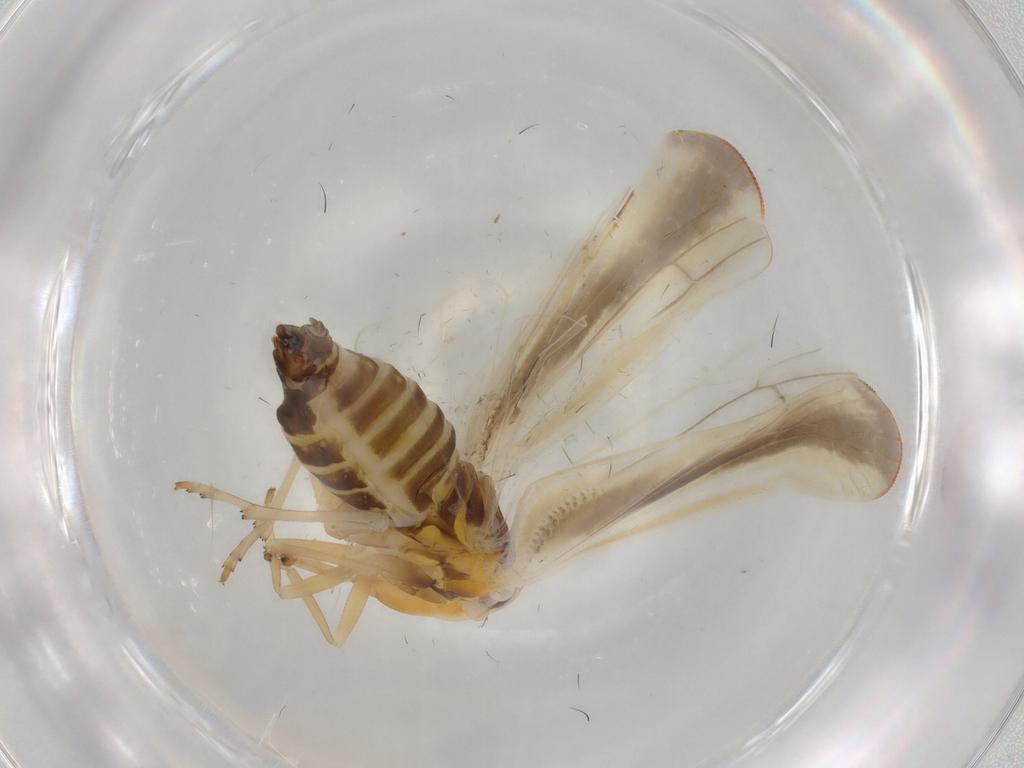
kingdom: Animalia
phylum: Arthropoda
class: Insecta
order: Hemiptera
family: Derbidae
